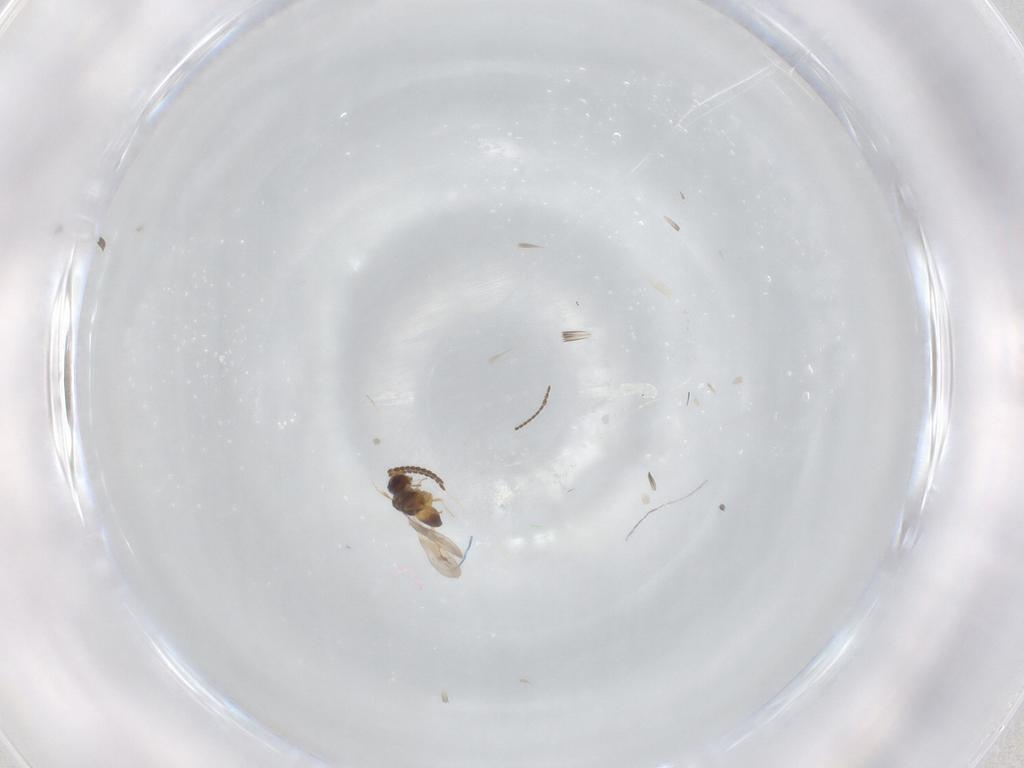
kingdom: Animalia
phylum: Arthropoda
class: Insecta
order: Hymenoptera
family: Ceraphronidae
